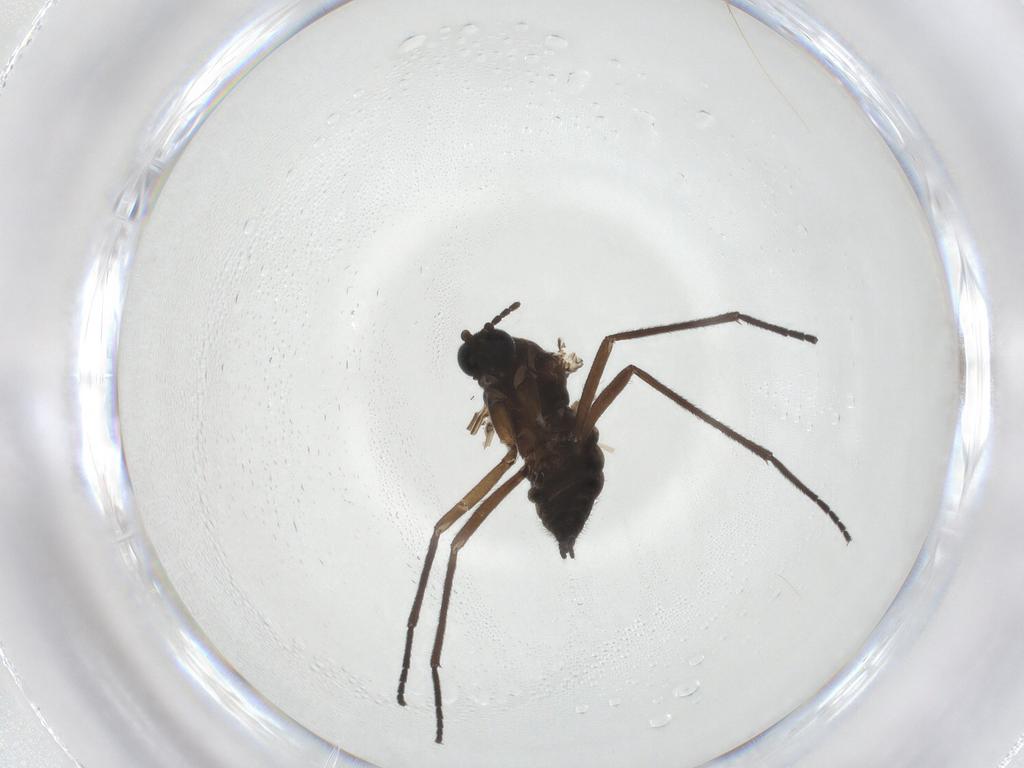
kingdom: Animalia
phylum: Arthropoda
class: Insecta
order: Diptera
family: Sciaridae
